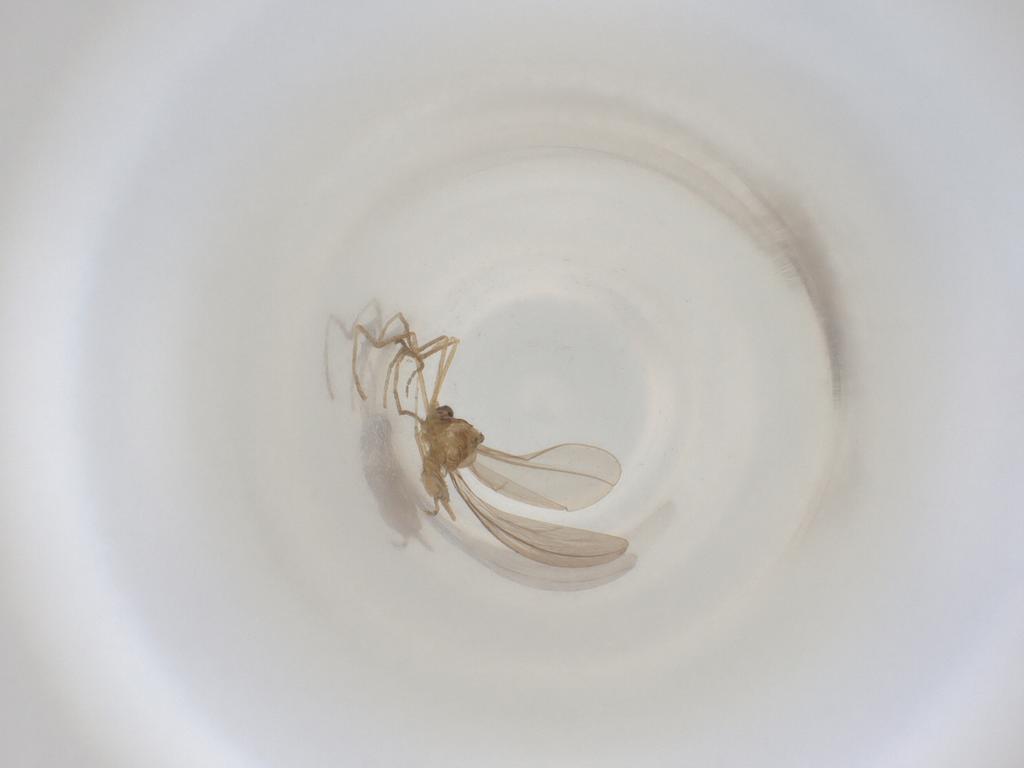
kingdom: Animalia
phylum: Arthropoda
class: Insecta
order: Diptera
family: Cecidomyiidae
